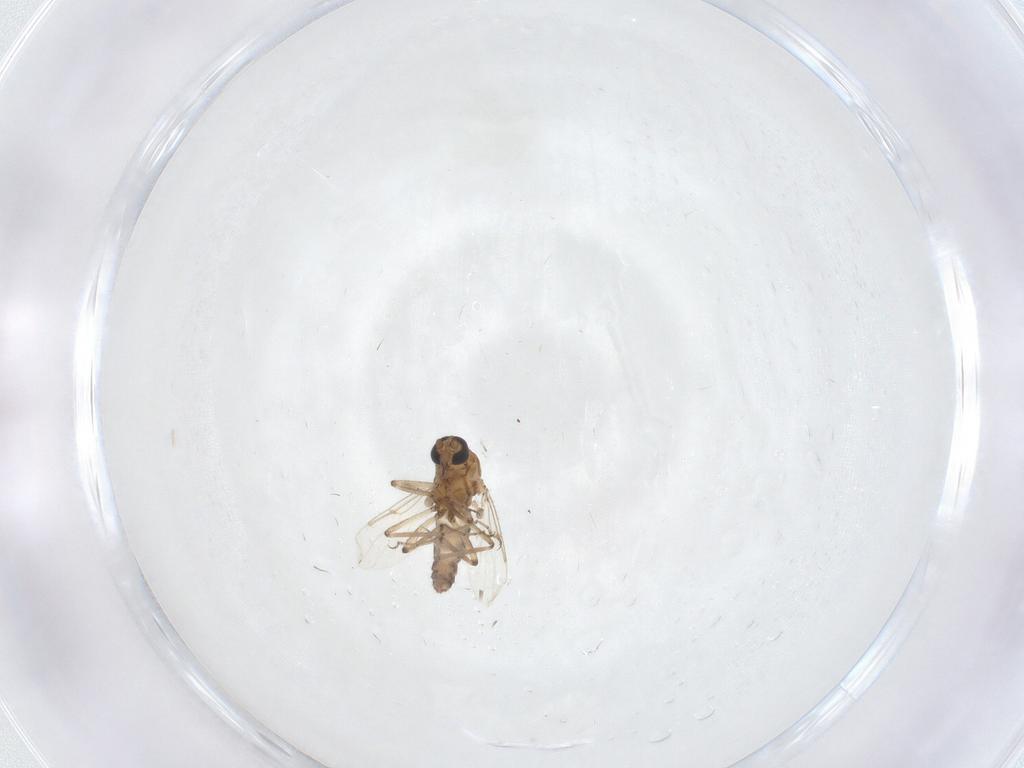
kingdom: Animalia
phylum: Arthropoda
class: Insecta
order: Diptera
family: Ceratopogonidae
